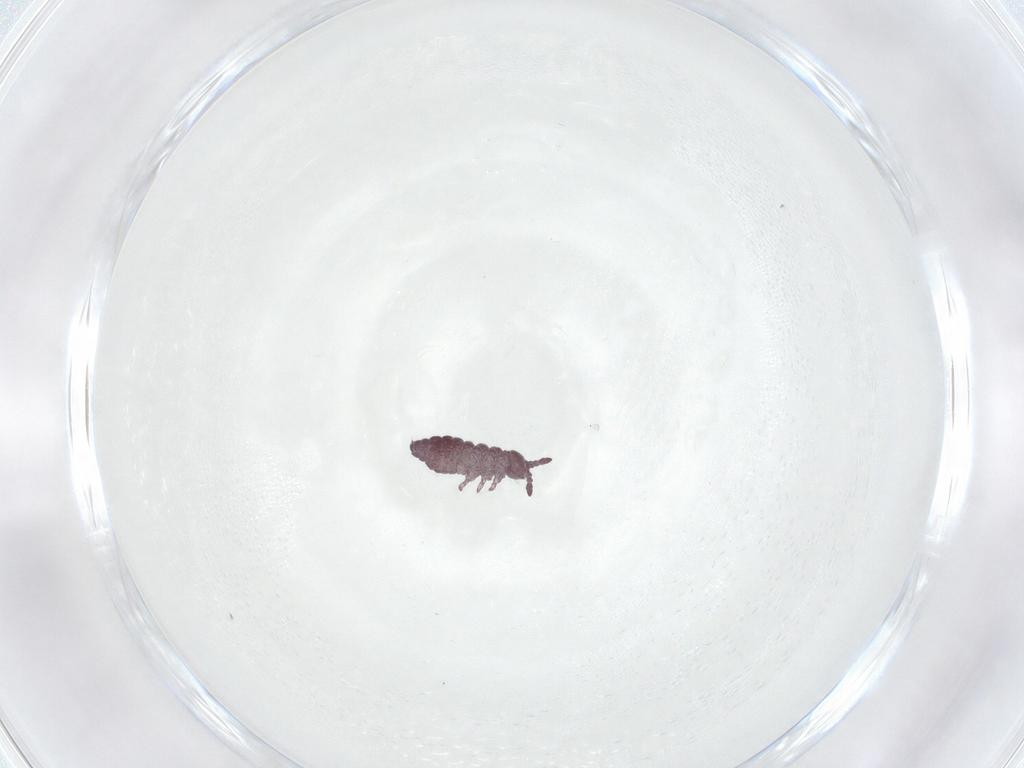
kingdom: Animalia
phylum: Arthropoda
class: Collembola
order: Poduromorpha
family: Hypogastruridae
